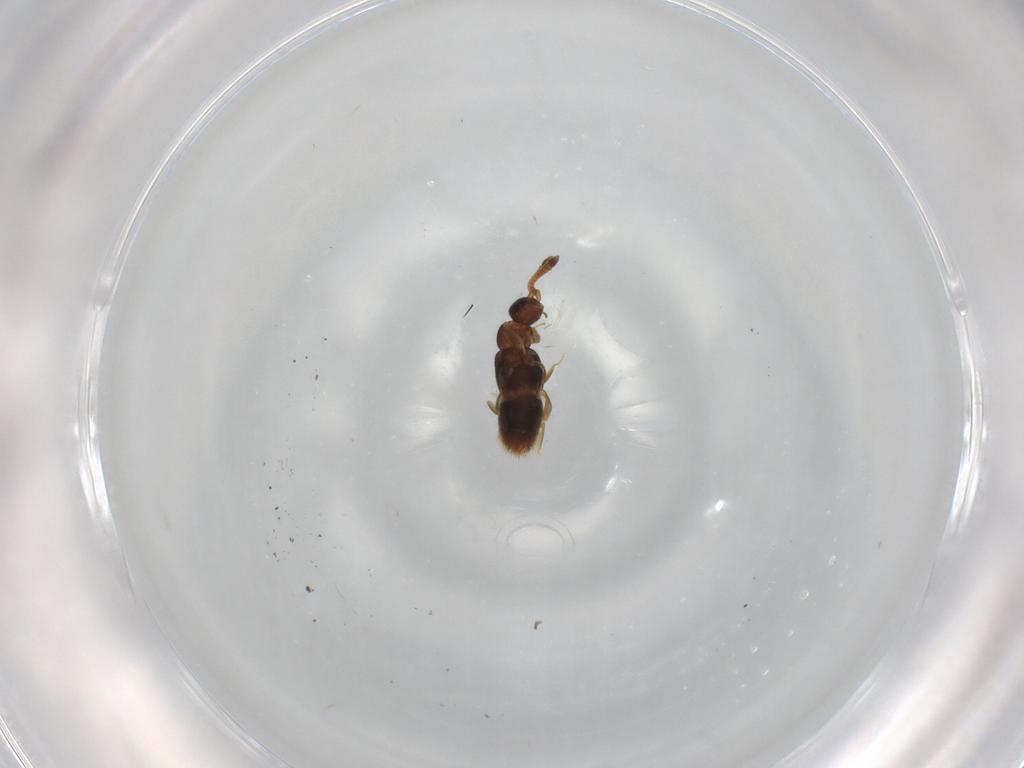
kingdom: Animalia
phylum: Arthropoda
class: Insecta
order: Coleoptera
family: Staphylinidae
